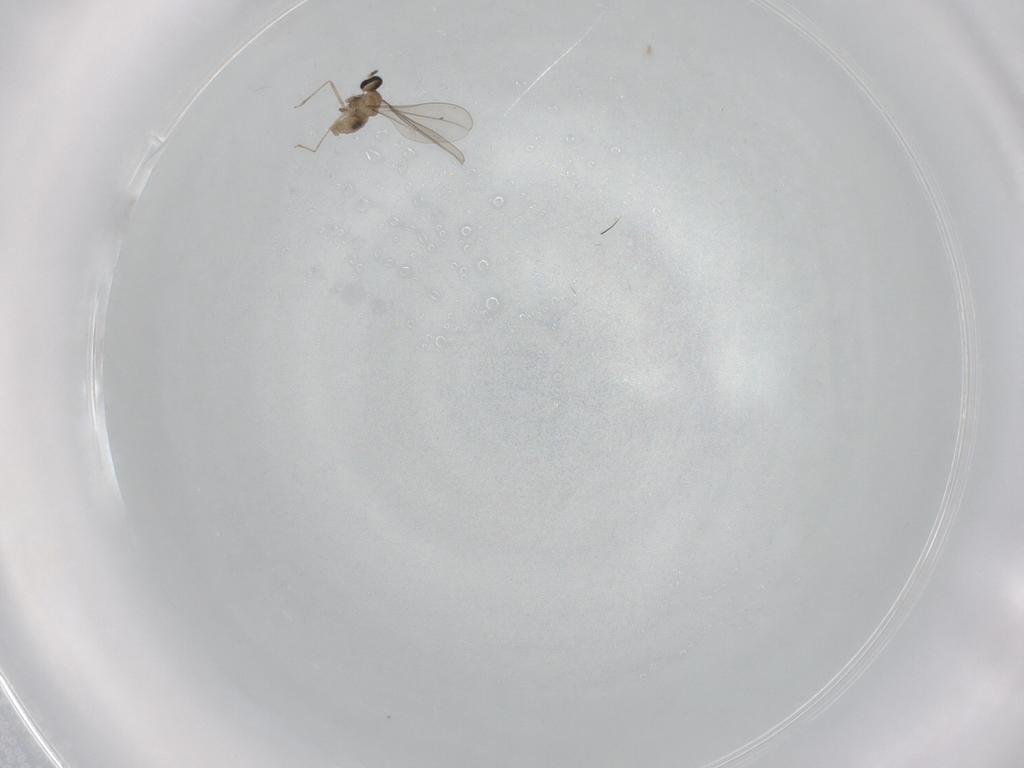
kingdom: Animalia
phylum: Arthropoda
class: Insecta
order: Diptera
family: Cecidomyiidae
